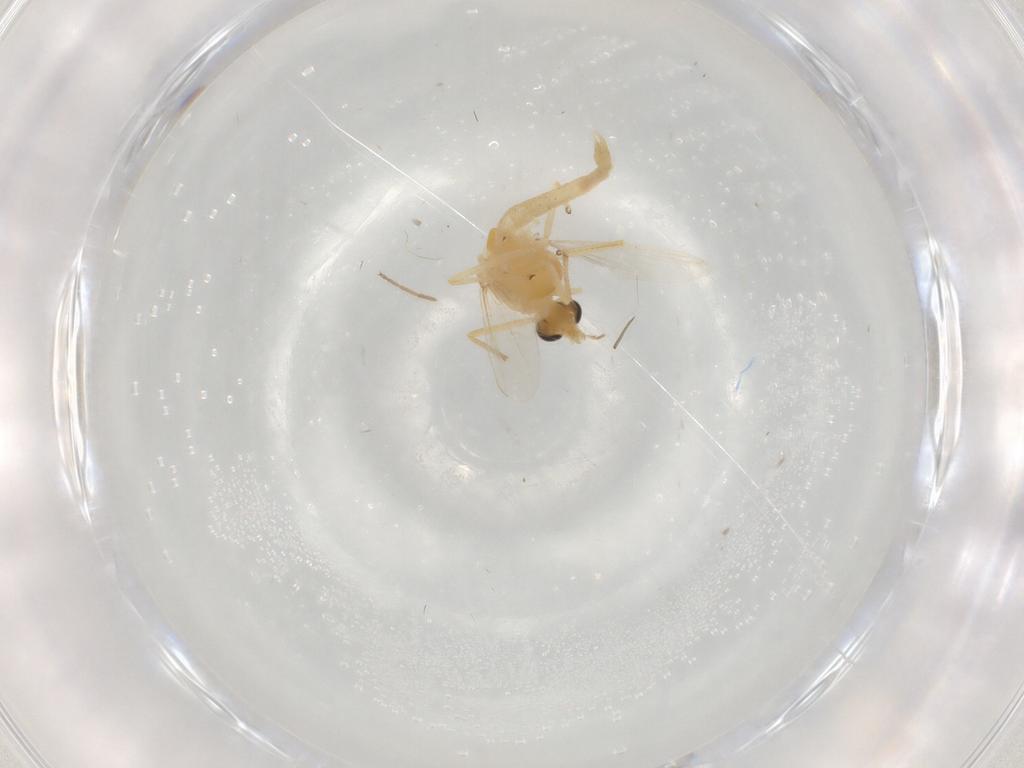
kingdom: Animalia
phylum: Arthropoda
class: Insecta
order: Diptera
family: Chironomidae
